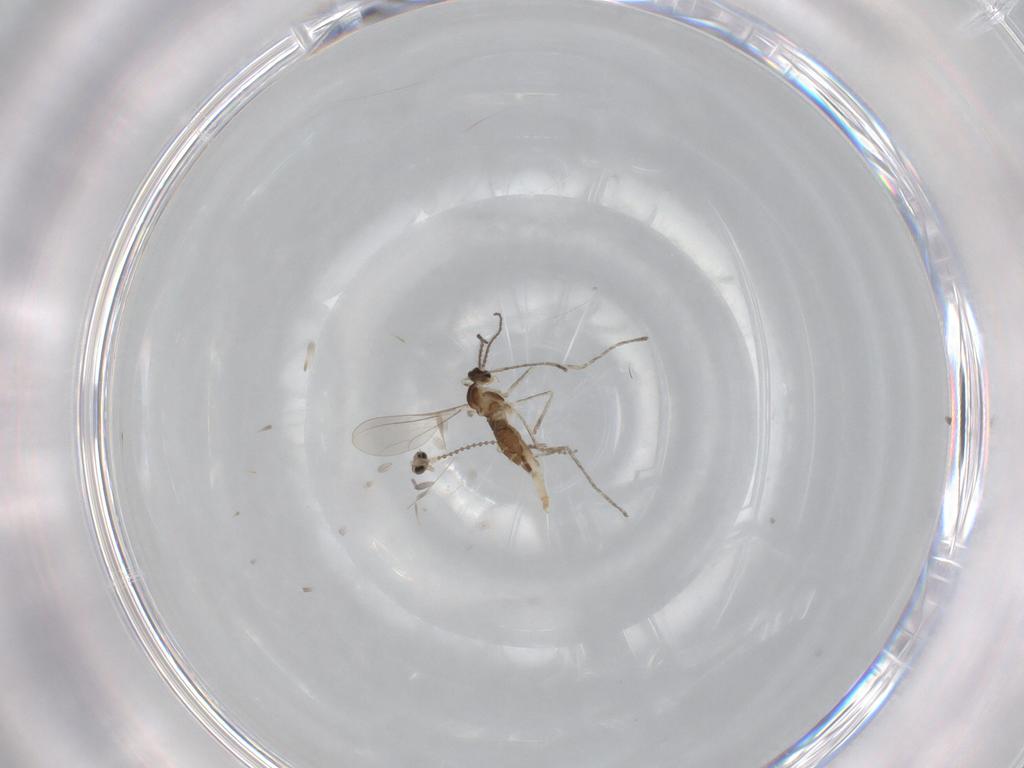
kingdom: Animalia
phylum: Arthropoda
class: Insecta
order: Diptera
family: Cecidomyiidae
